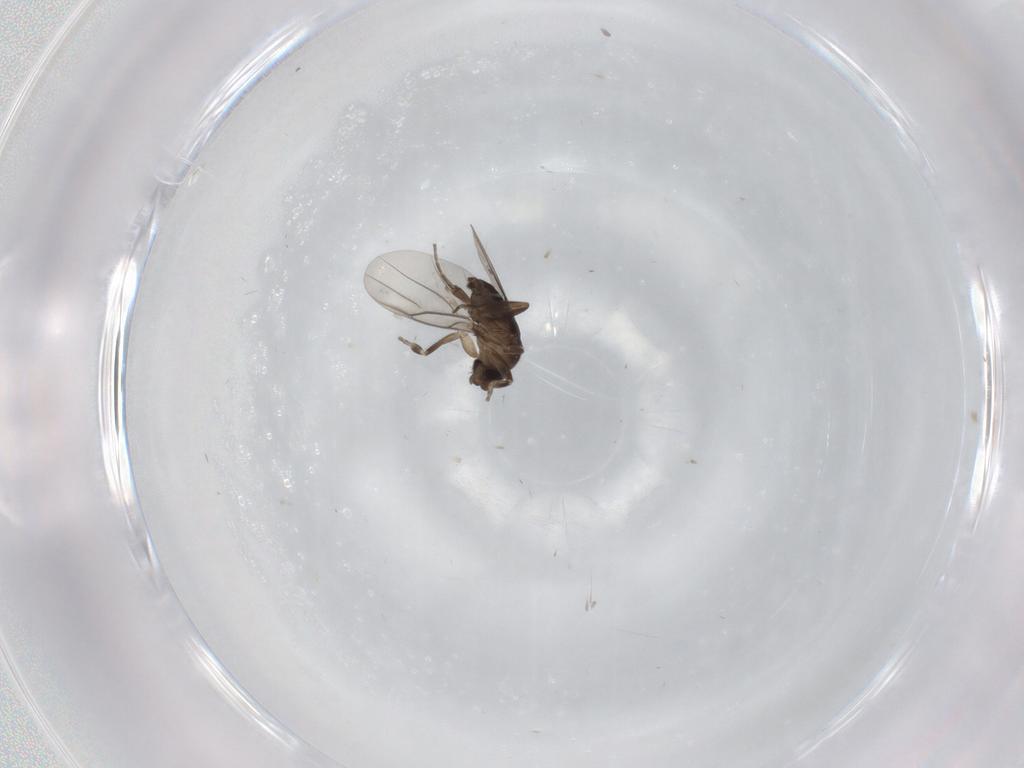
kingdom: Animalia
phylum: Arthropoda
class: Insecta
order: Diptera
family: Phoridae
